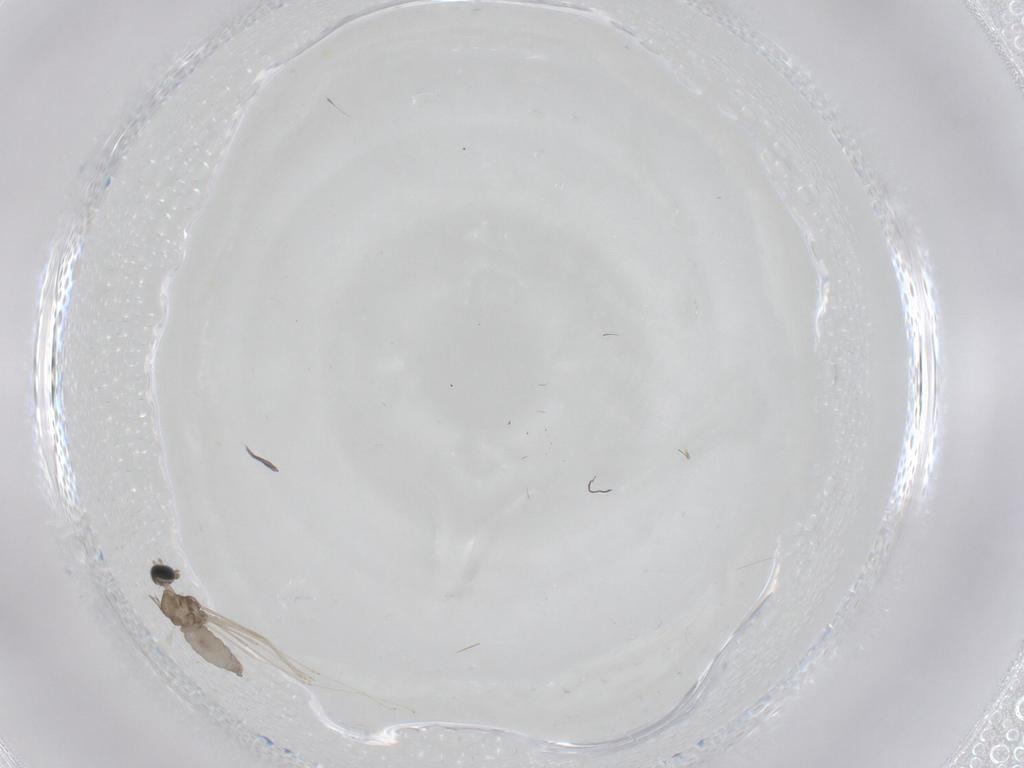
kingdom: Animalia
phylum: Arthropoda
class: Insecta
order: Diptera
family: Cecidomyiidae
